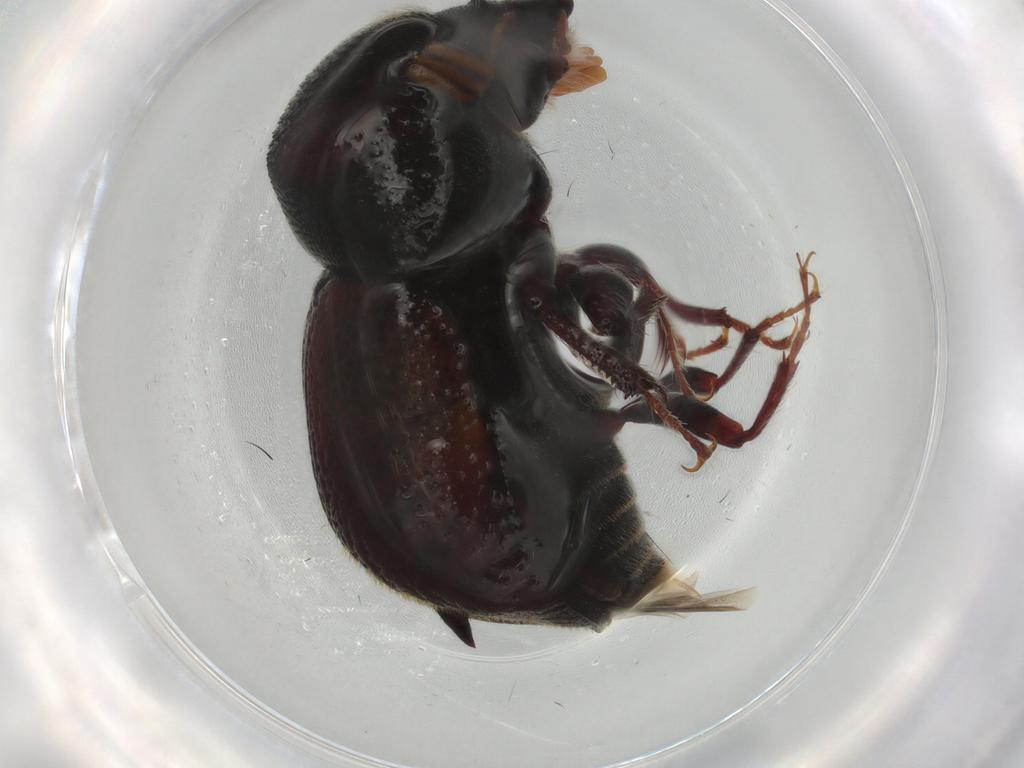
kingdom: Animalia
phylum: Arthropoda
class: Insecta
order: Coleoptera
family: Bostrichidae
